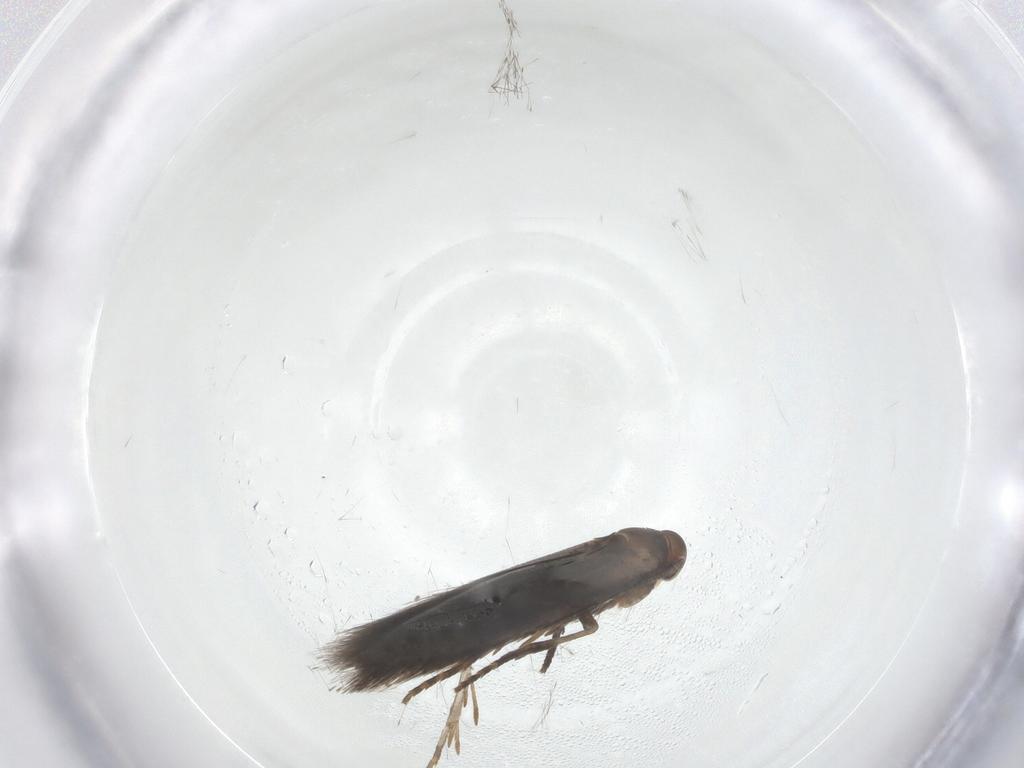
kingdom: Animalia
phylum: Arthropoda
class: Insecta
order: Lepidoptera
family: Elachistidae
